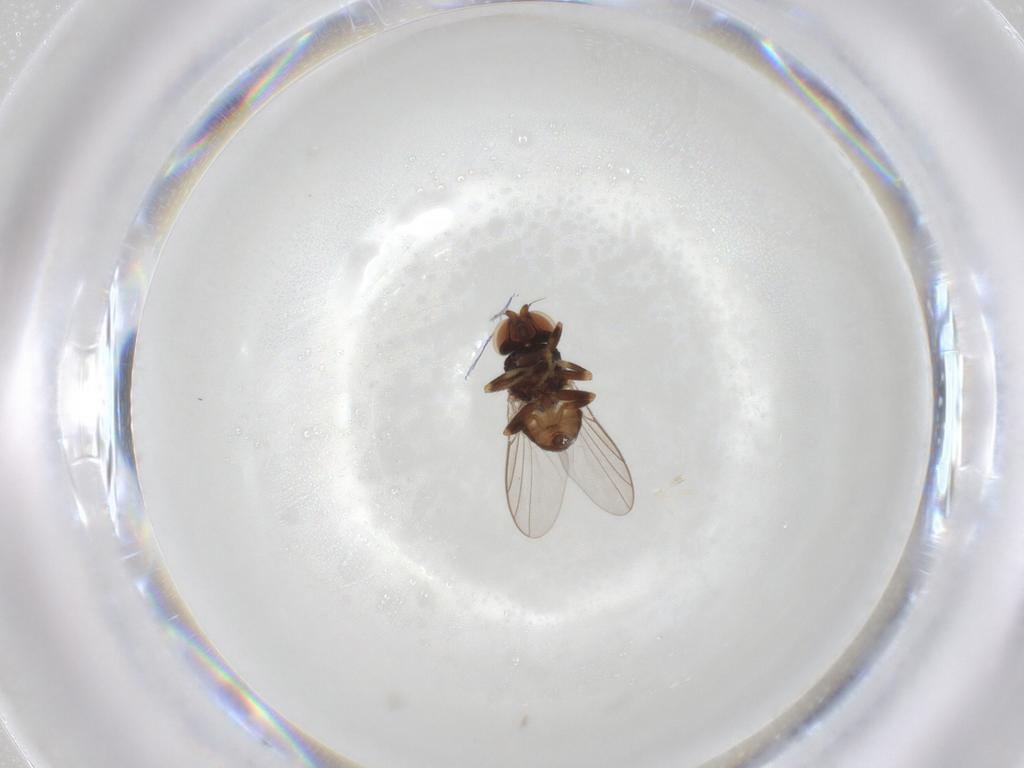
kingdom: Animalia
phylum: Arthropoda
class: Insecta
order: Diptera
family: Chloropidae
